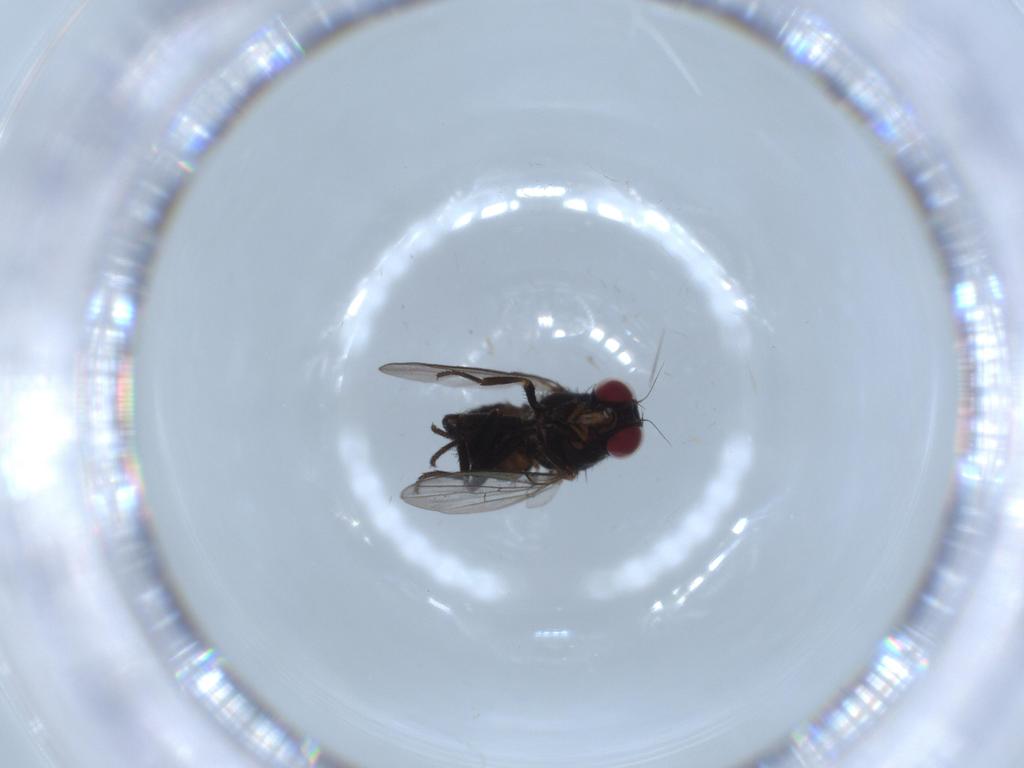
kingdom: Animalia
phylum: Arthropoda
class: Insecta
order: Diptera
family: Agromyzidae
